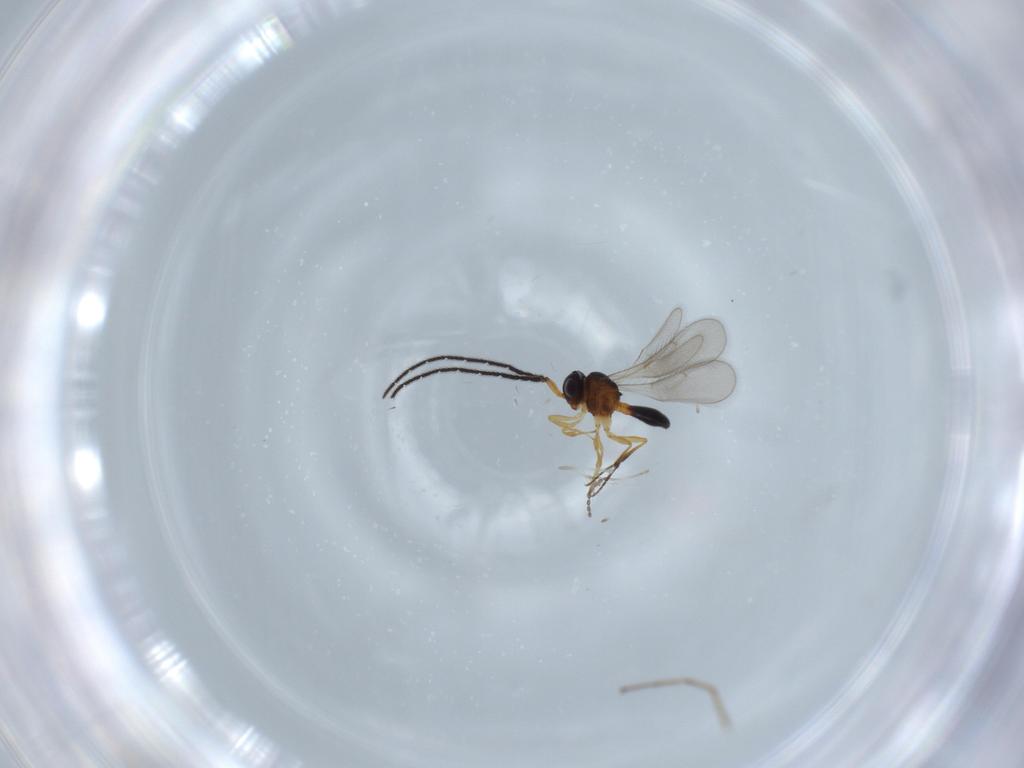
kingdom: Animalia
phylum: Arthropoda
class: Insecta
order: Hymenoptera
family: Scelionidae
